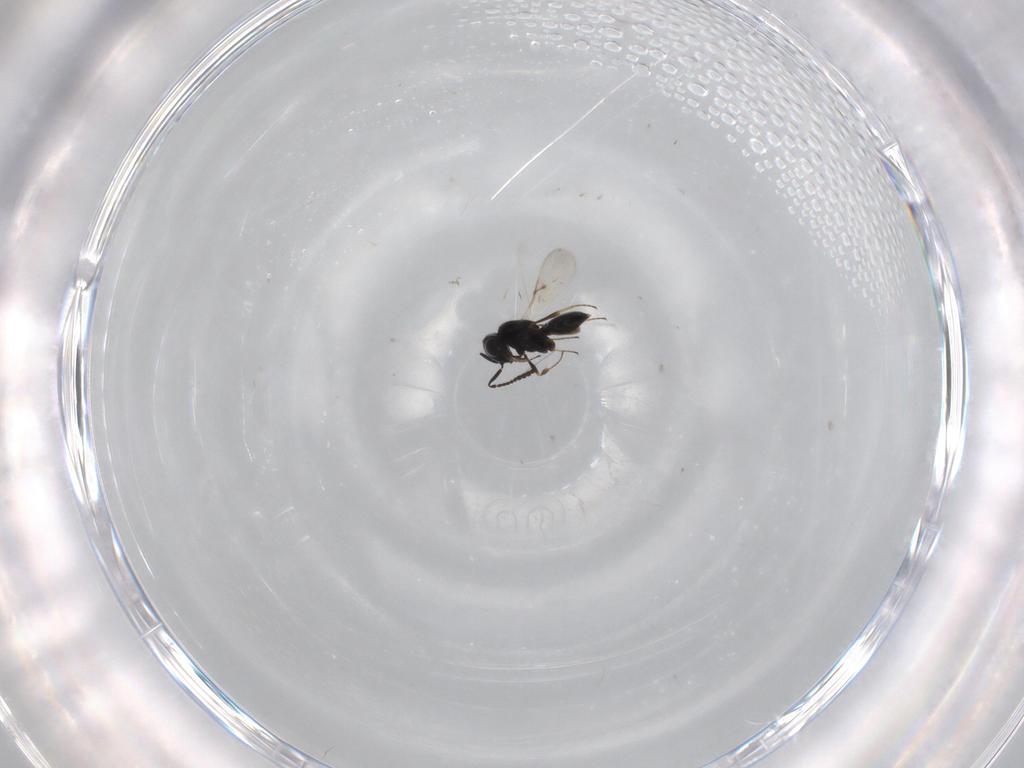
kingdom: Animalia
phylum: Arthropoda
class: Insecta
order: Hymenoptera
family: Scelionidae
